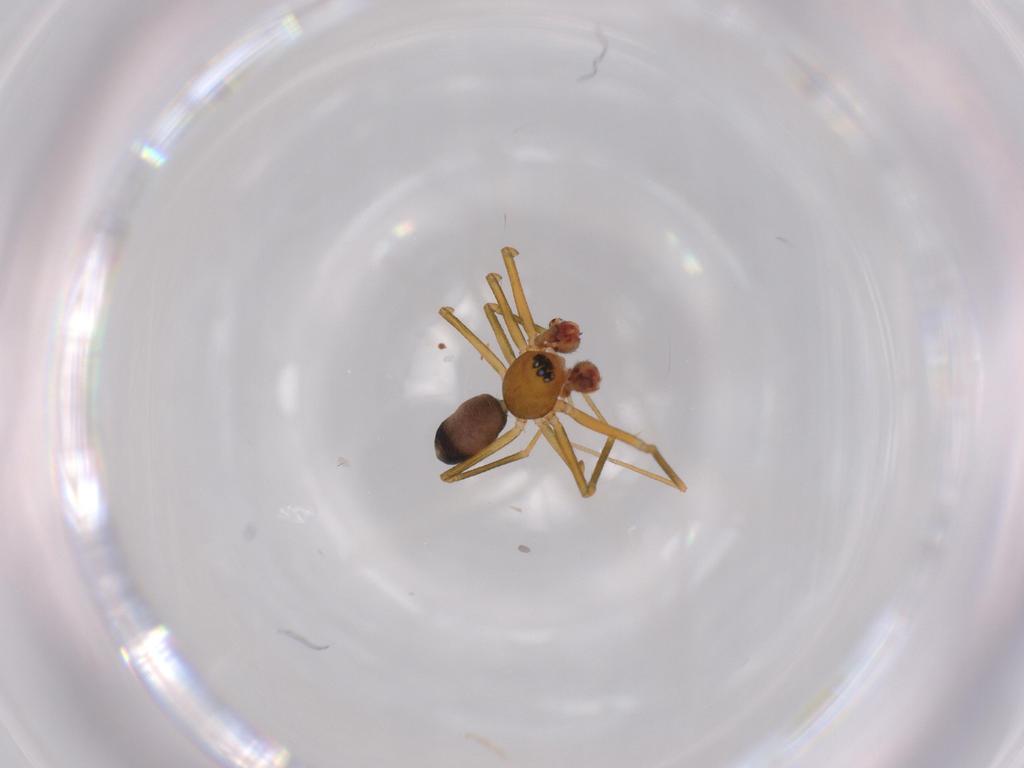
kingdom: Animalia
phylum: Arthropoda
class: Arachnida
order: Araneae
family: Linyphiidae
